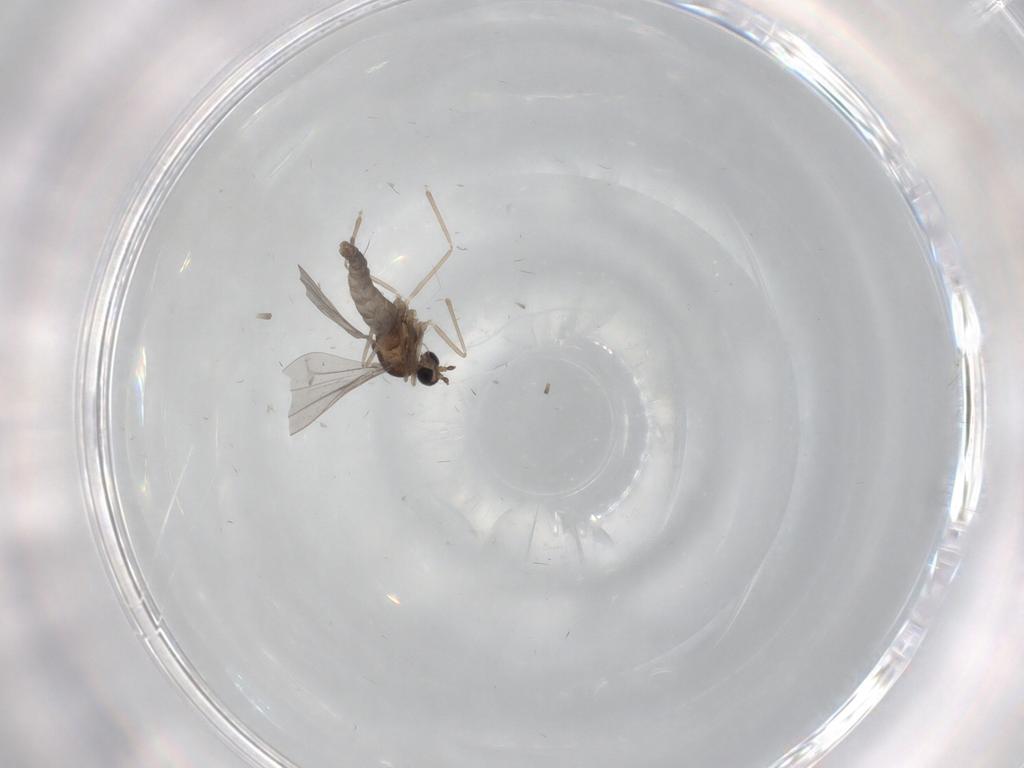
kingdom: Animalia
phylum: Arthropoda
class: Insecta
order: Diptera
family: Cecidomyiidae
